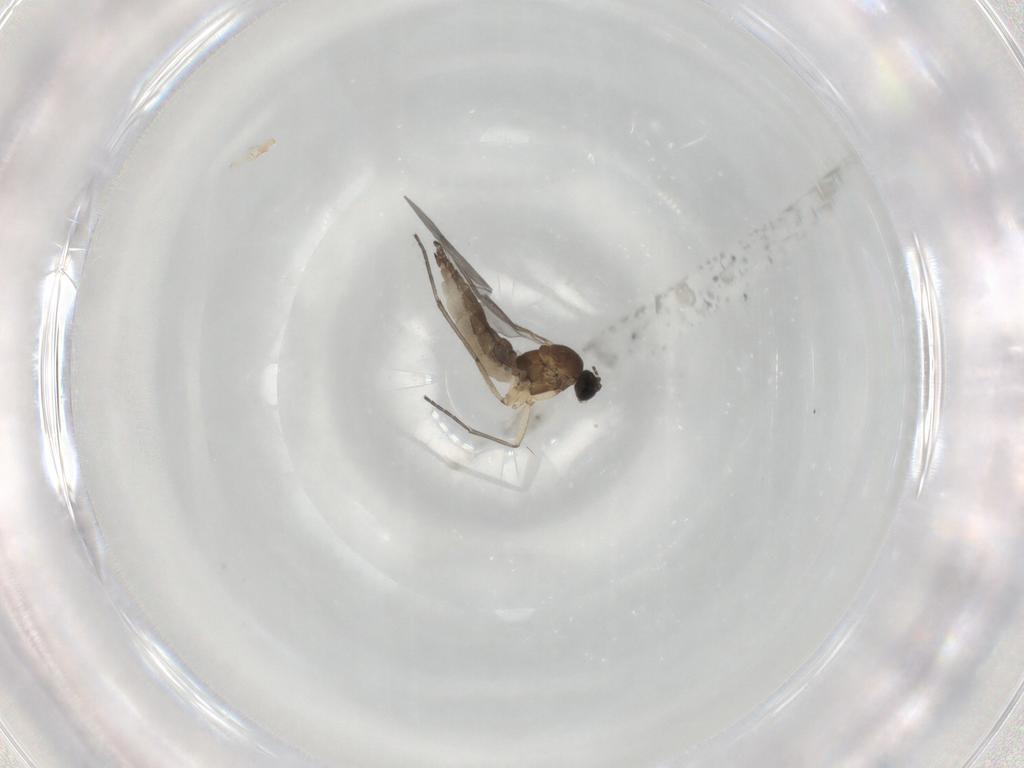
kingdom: Animalia
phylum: Arthropoda
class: Insecta
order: Diptera
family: Sciaridae
